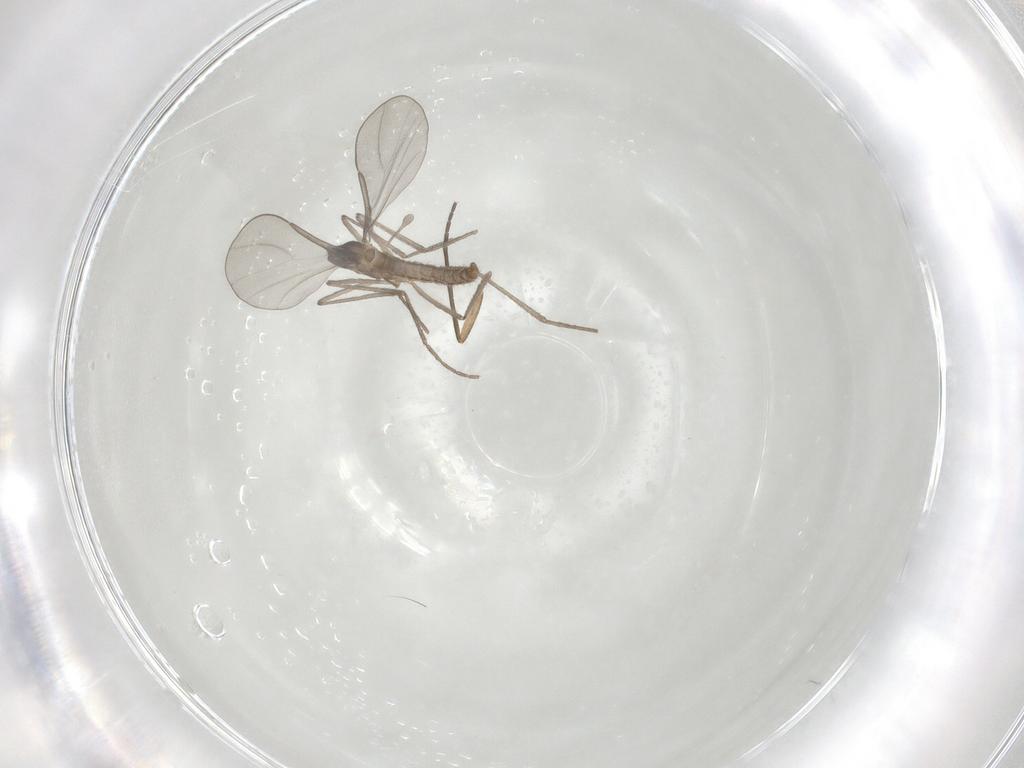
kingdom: Animalia
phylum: Arthropoda
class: Insecta
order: Diptera
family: Cecidomyiidae
